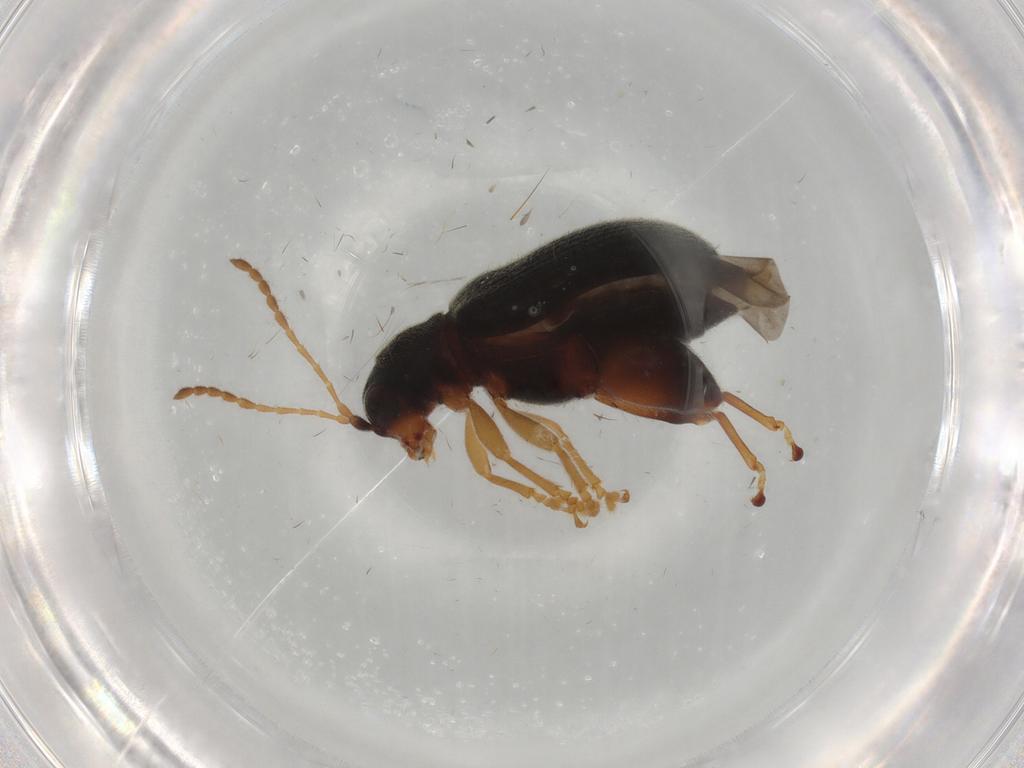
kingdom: Animalia
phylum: Arthropoda
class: Insecta
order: Coleoptera
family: Chrysomelidae
